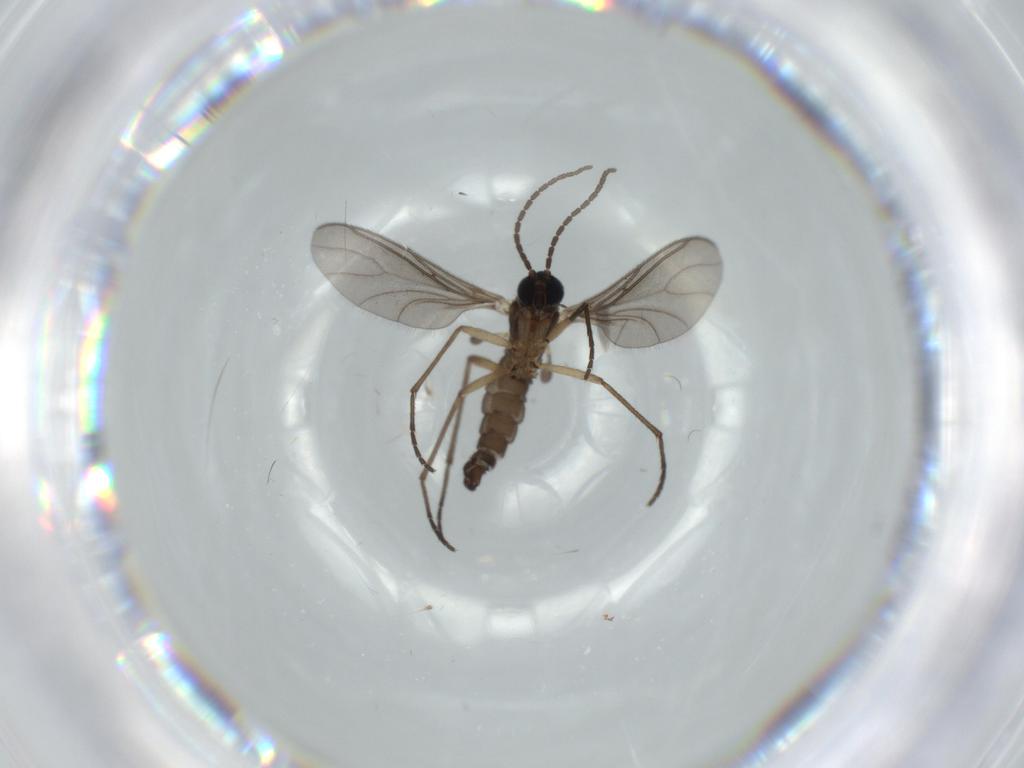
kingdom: Animalia
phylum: Arthropoda
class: Insecta
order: Diptera
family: Sciaridae
